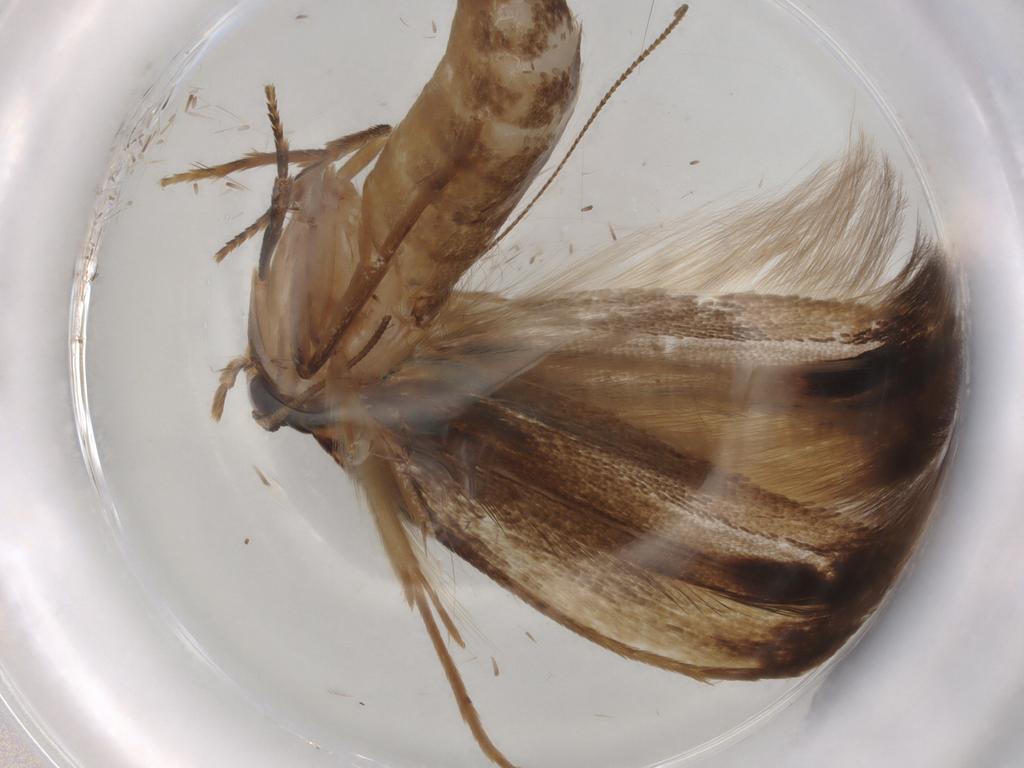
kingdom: Animalia
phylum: Arthropoda
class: Insecta
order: Lepidoptera
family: Tineidae
